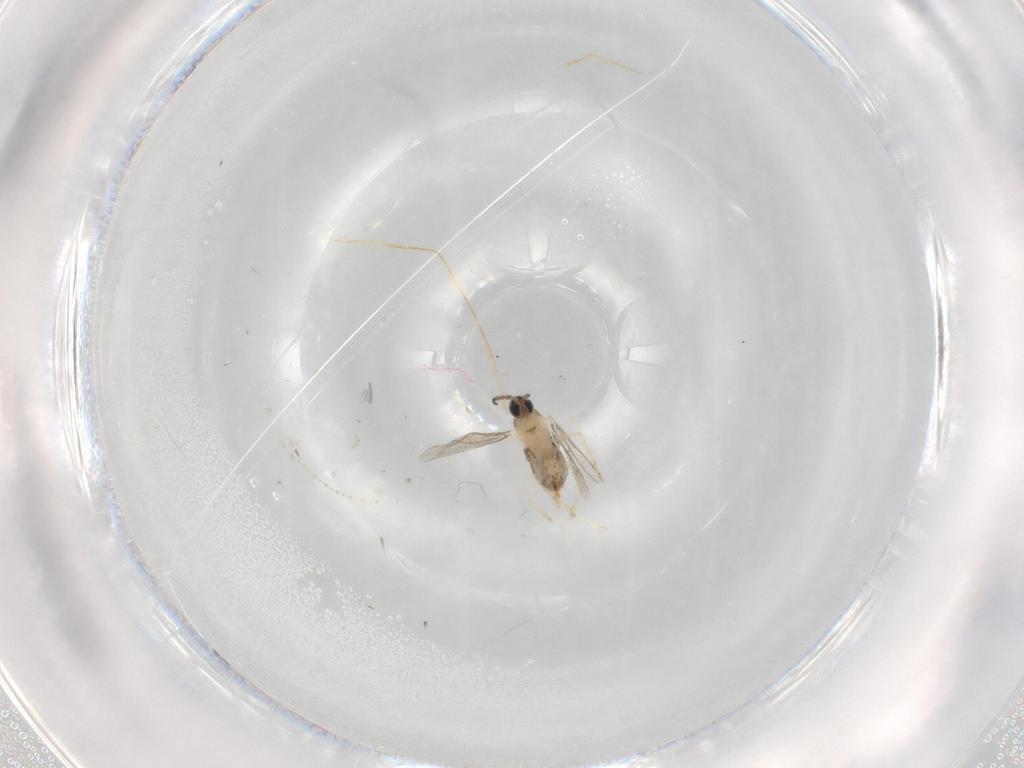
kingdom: Animalia
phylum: Arthropoda
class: Insecta
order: Diptera
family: Cecidomyiidae
